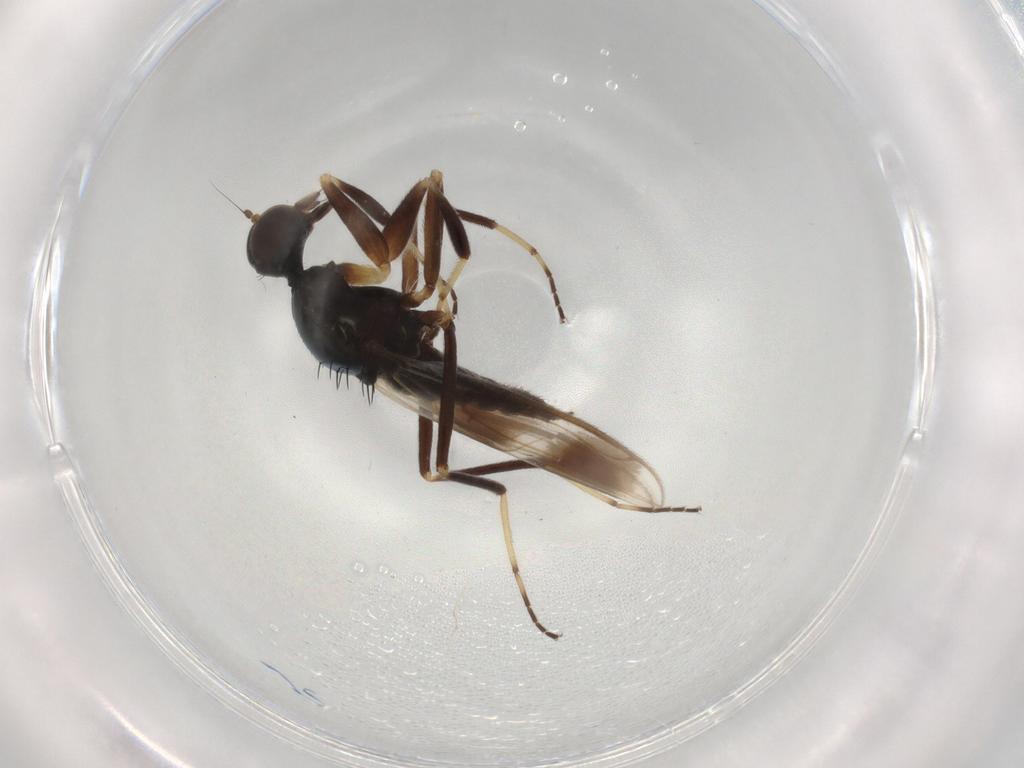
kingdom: Animalia
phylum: Arthropoda
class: Insecta
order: Diptera
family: Hybotidae
